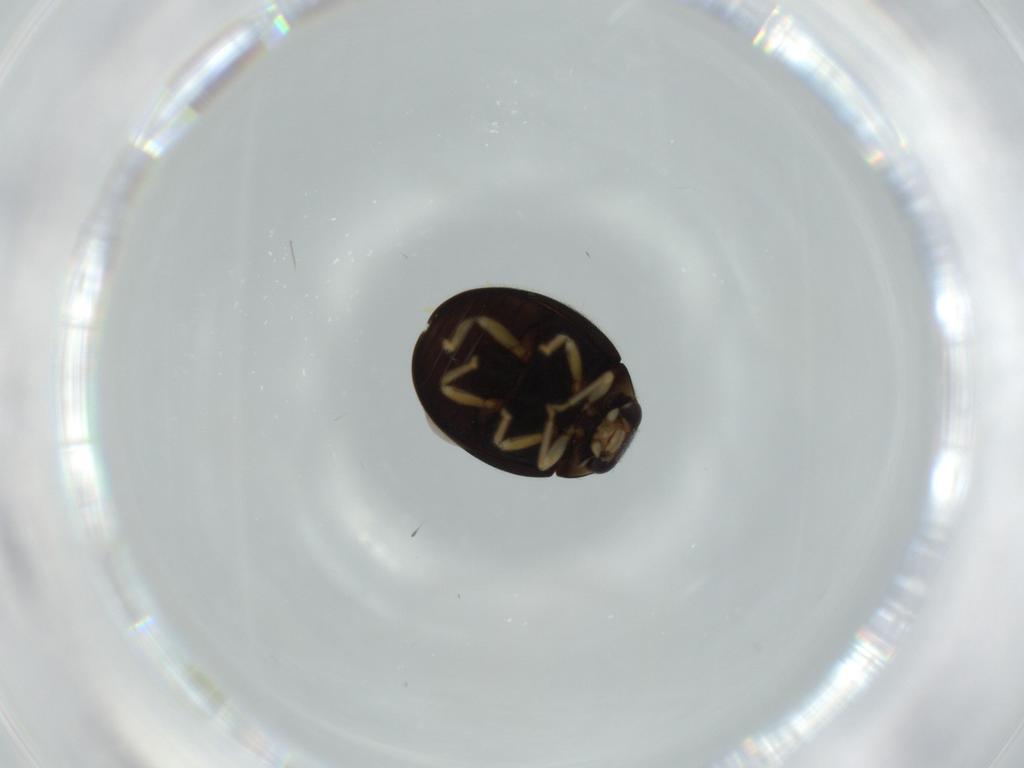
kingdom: Animalia
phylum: Arthropoda
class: Insecta
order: Coleoptera
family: Coccinellidae
